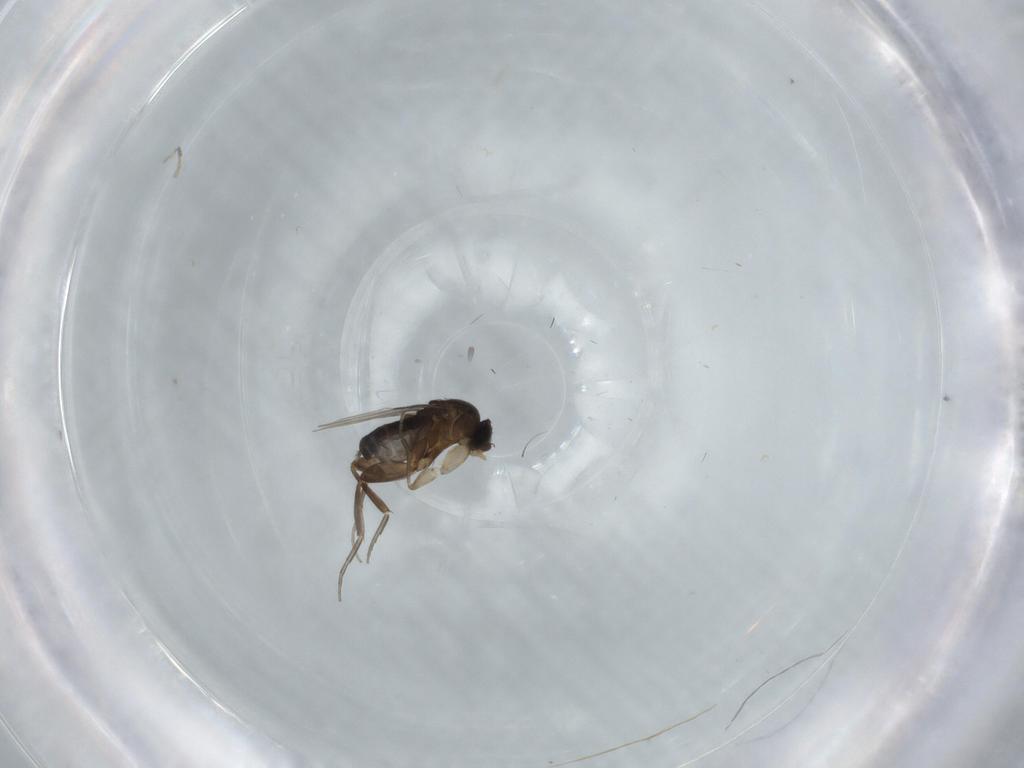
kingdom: Animalia
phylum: Arthropoda
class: Insecta
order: Diptera
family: Phoridae
